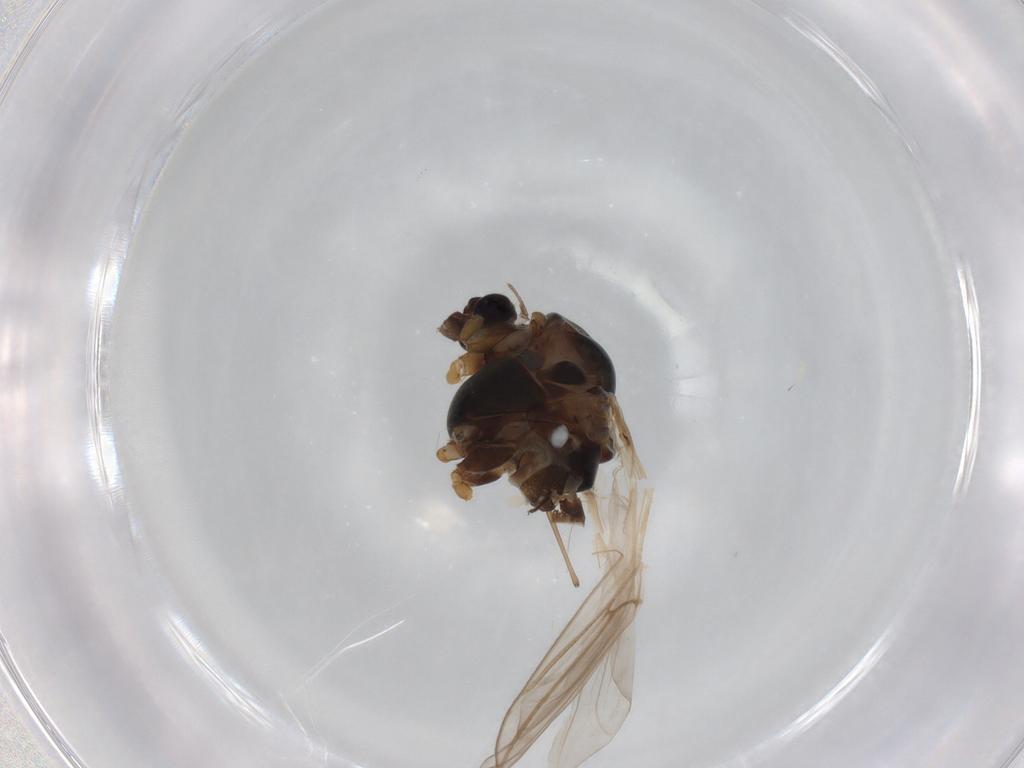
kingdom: Animalia
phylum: Arthropoda
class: Insecta
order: Diptera
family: Chironomidae
